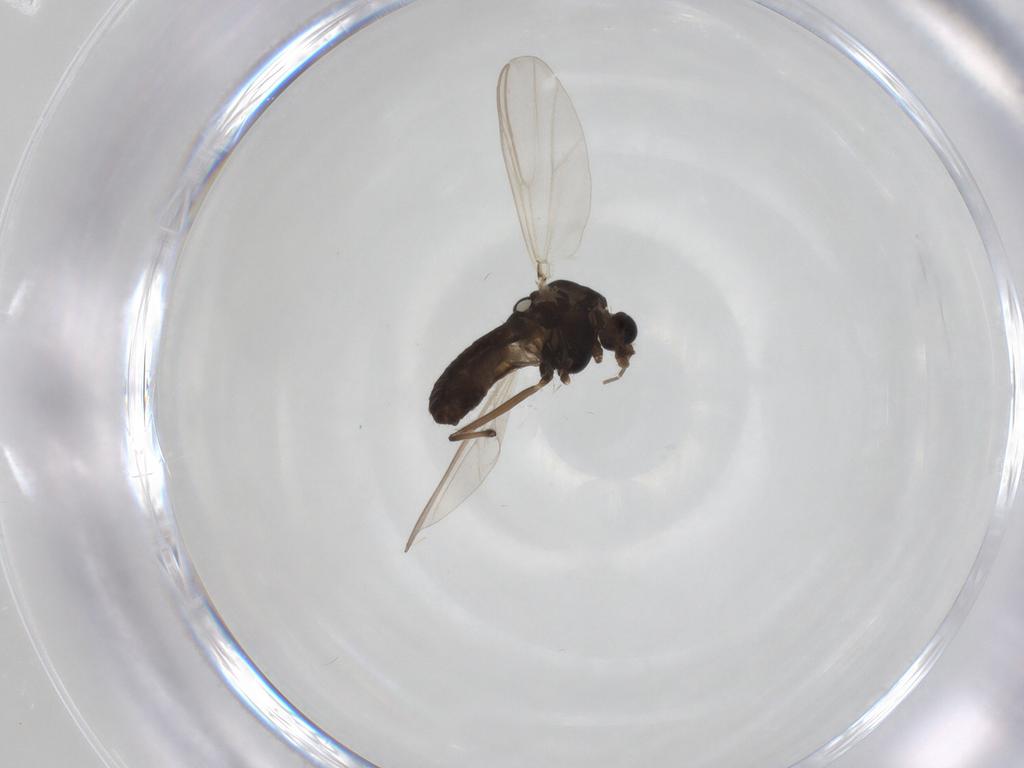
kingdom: Animalia
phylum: Arthropoda
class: Insecta
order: Diptera
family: Chironomidae
